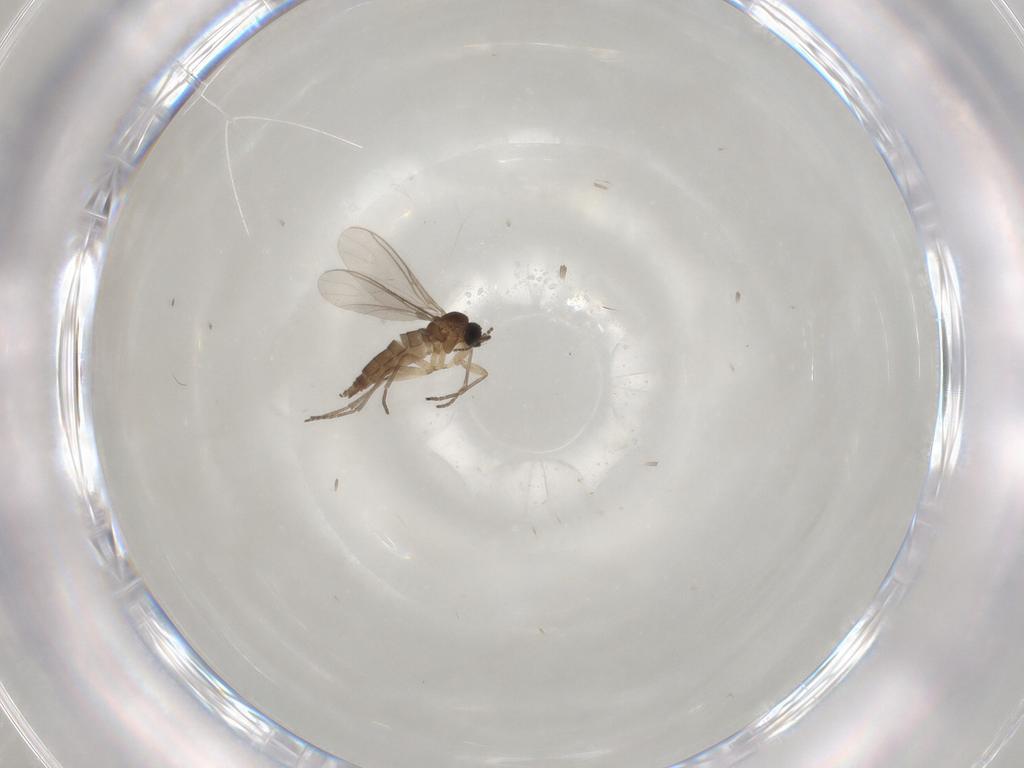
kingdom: Animalia
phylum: Arthropoda
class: Insecta
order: Diptera
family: Sciaridae
